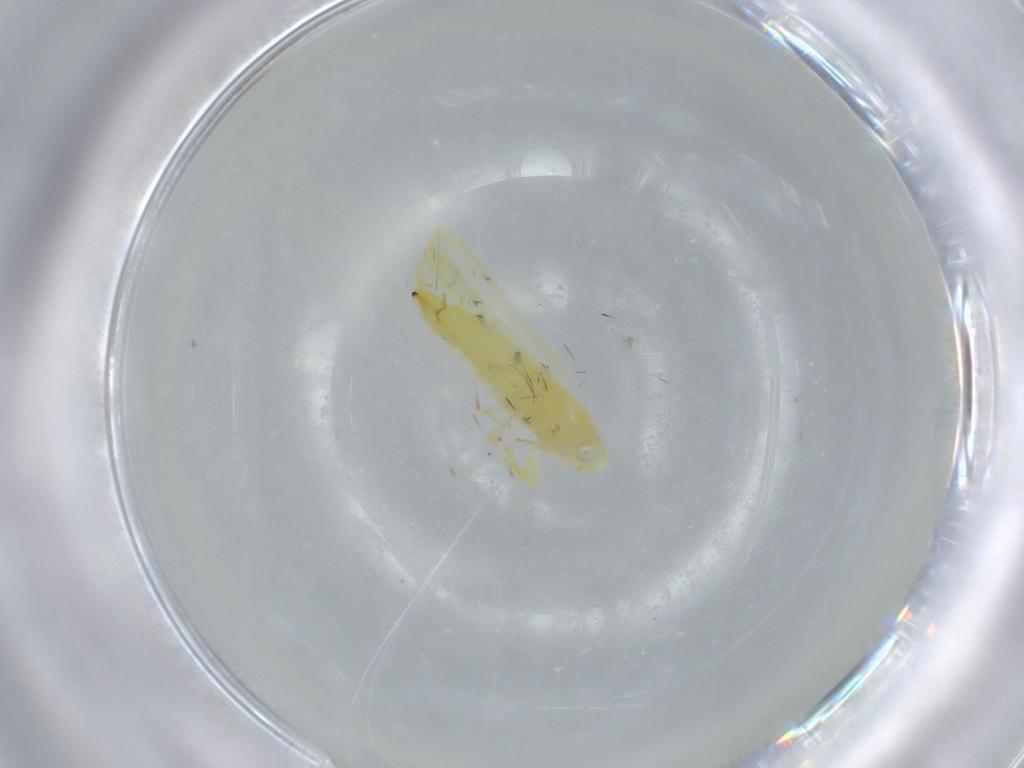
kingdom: Animalia
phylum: Arthropoda
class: Insecta
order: Hemiptera
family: Cicadellidae
